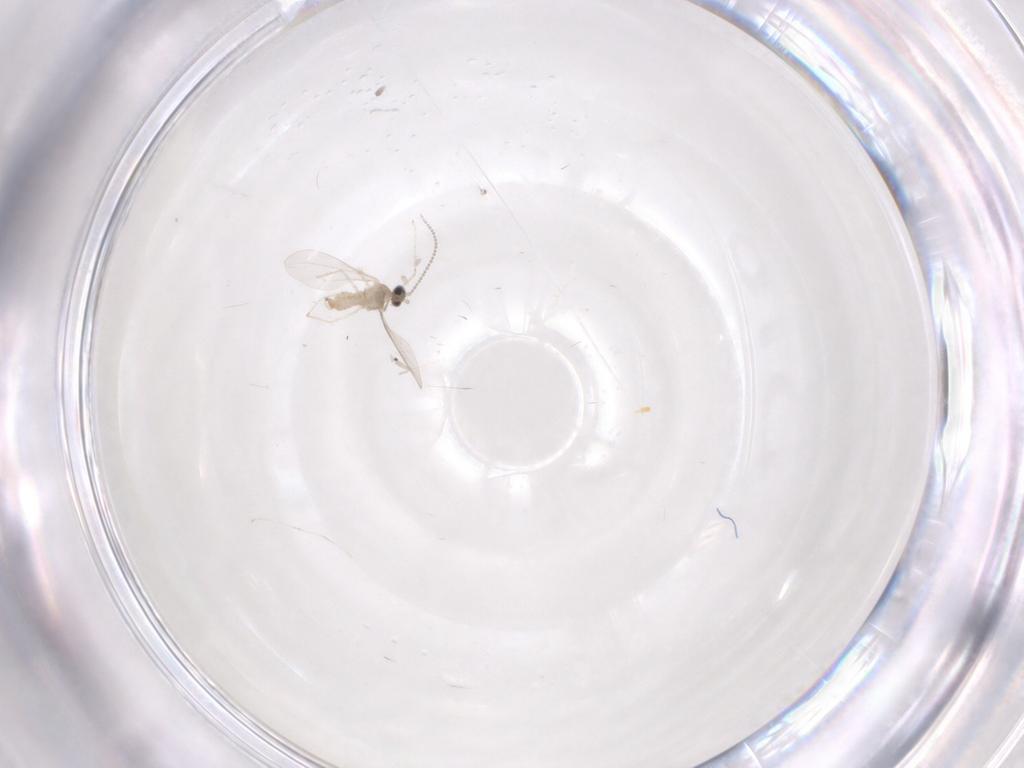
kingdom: Animalia
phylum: Arthropoda
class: Insecta
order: Diptera
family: Cecidomyiidae
